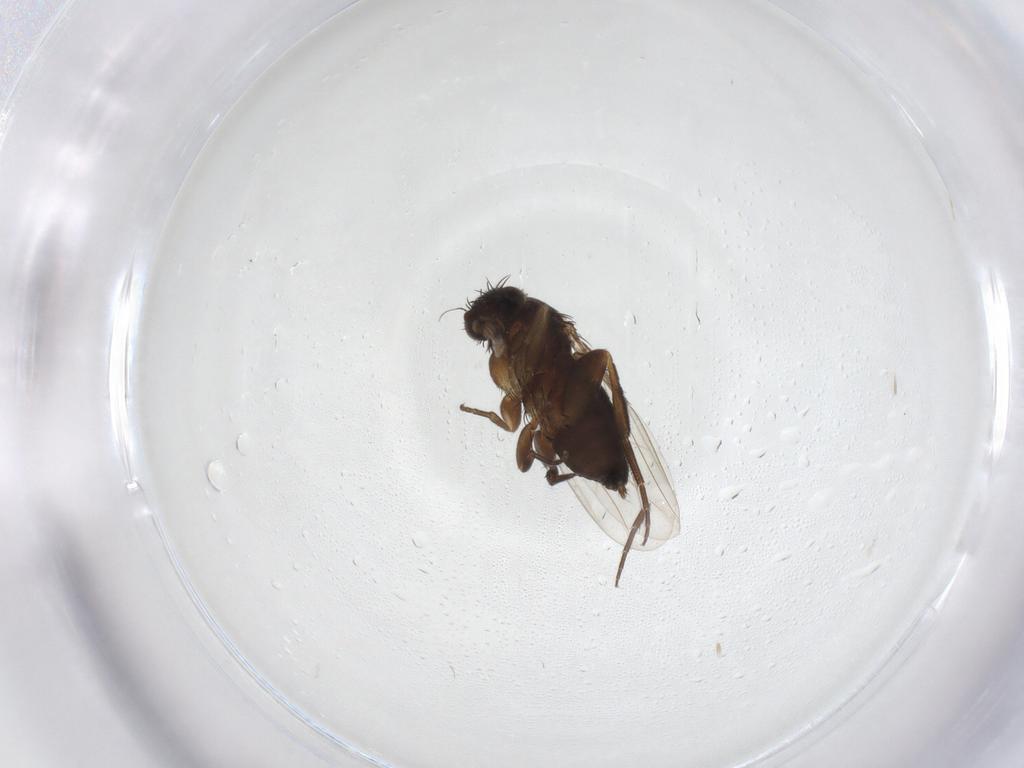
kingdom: Animalia
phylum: Arthropoda
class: Insecta
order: Diptera
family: Phoridae
